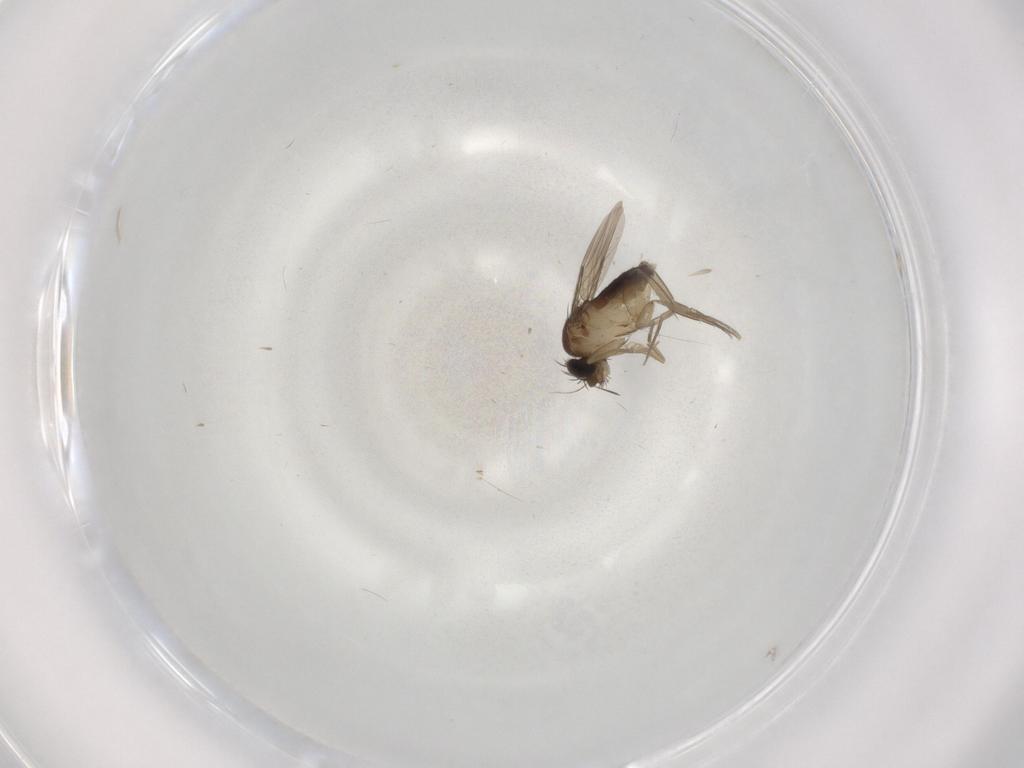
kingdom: Animalia
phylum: Arthropoda
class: Insecta
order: Diptera
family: Phoridae
